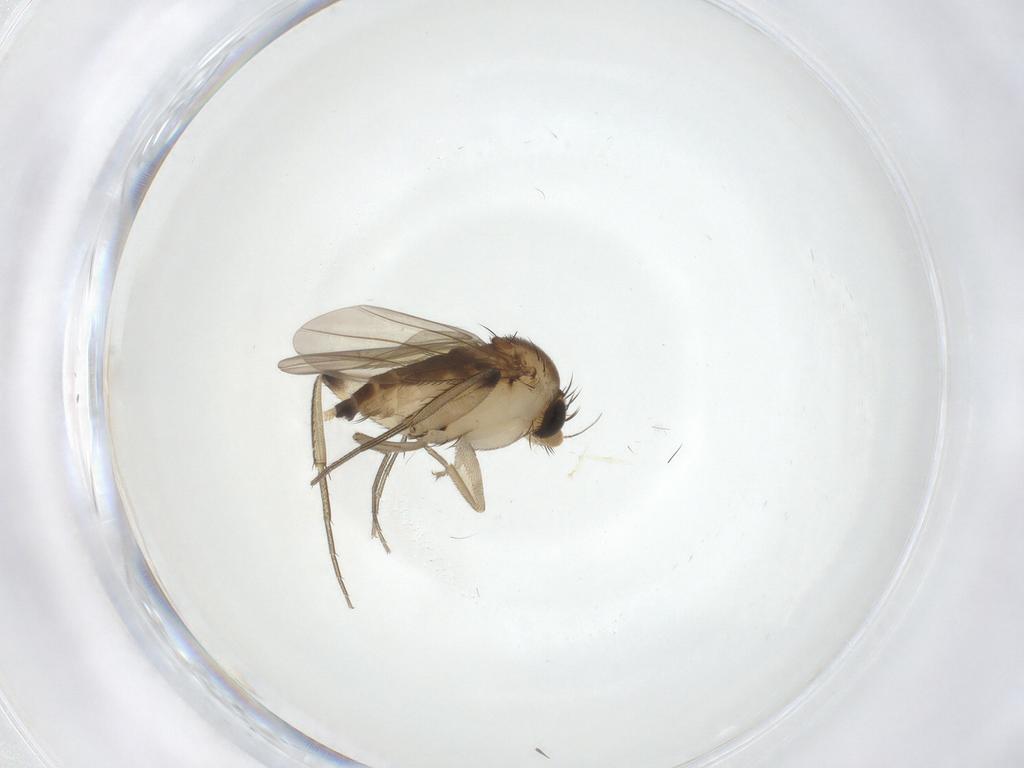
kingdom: Animalia
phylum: Arthropoda
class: Insecta
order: Diptera
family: Phoridae
